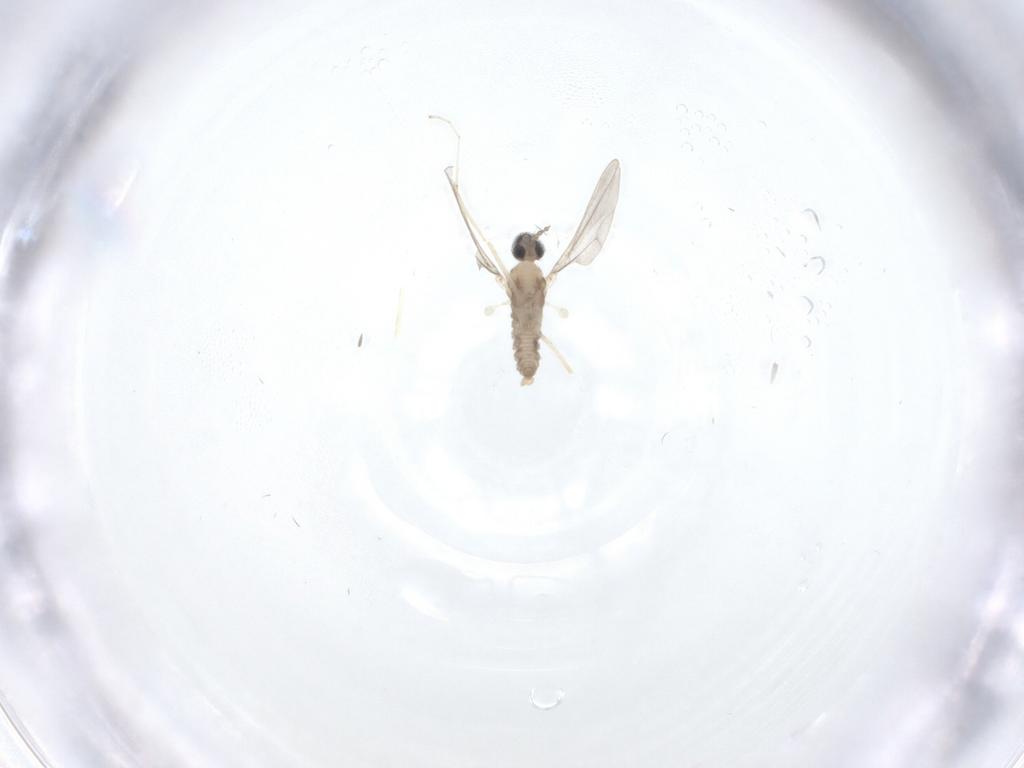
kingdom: Animalia
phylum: Arthropoda
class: Insecta
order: Diptera
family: Cecidomyiidae
